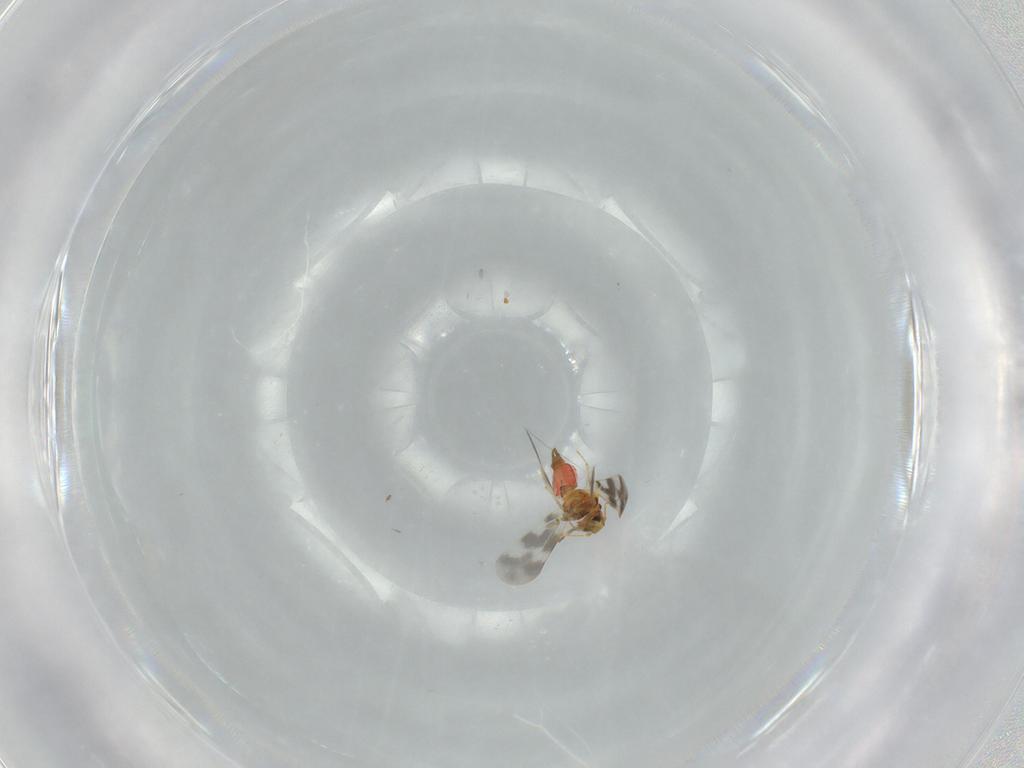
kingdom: Animalia
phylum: Arthropoda
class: Insecta
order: Hemiptera
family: Aleyrodidae
